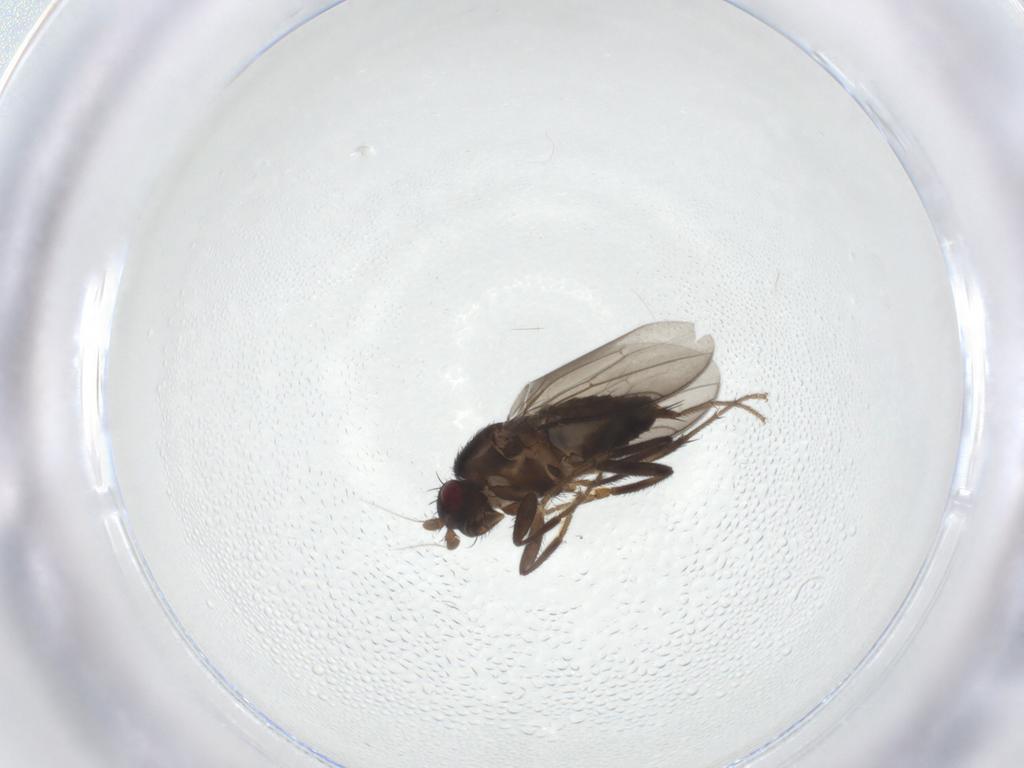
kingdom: Animalia
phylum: Arthropoda
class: Insecta
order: Diptera
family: Sphaeroceridae
